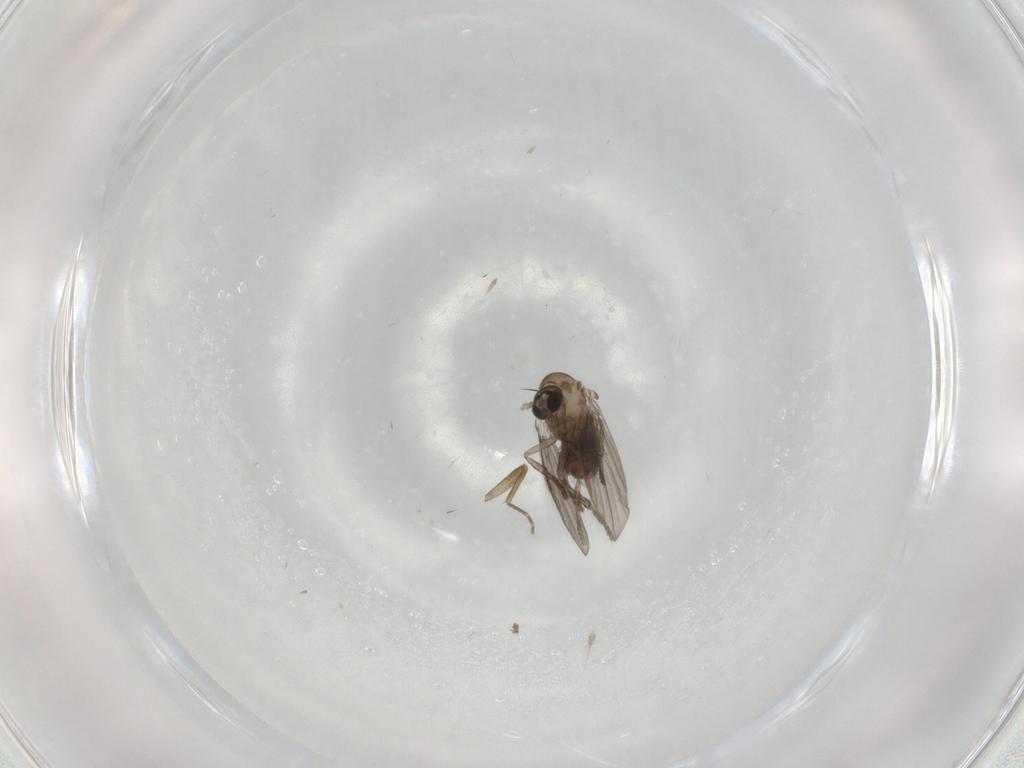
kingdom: Animalia
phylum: Arthropoda
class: Insecta
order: Diptera
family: Psychodidae
